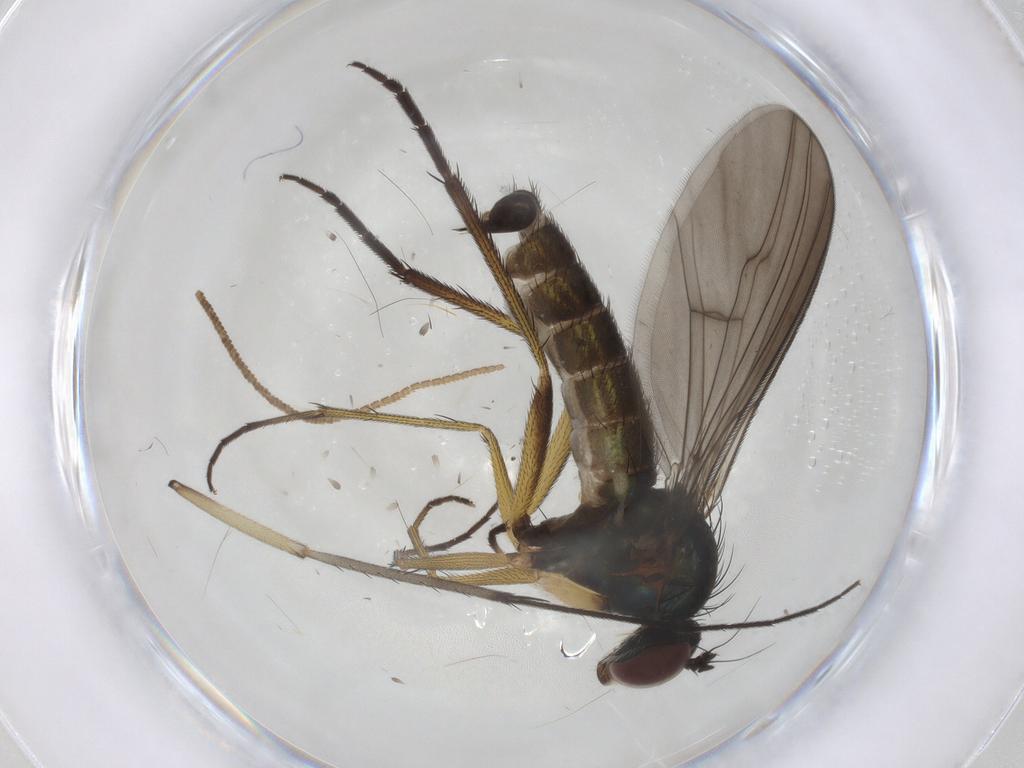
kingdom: Animalia
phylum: Arthropoda
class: Insecta
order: Diptera
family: Dolichopodidae
